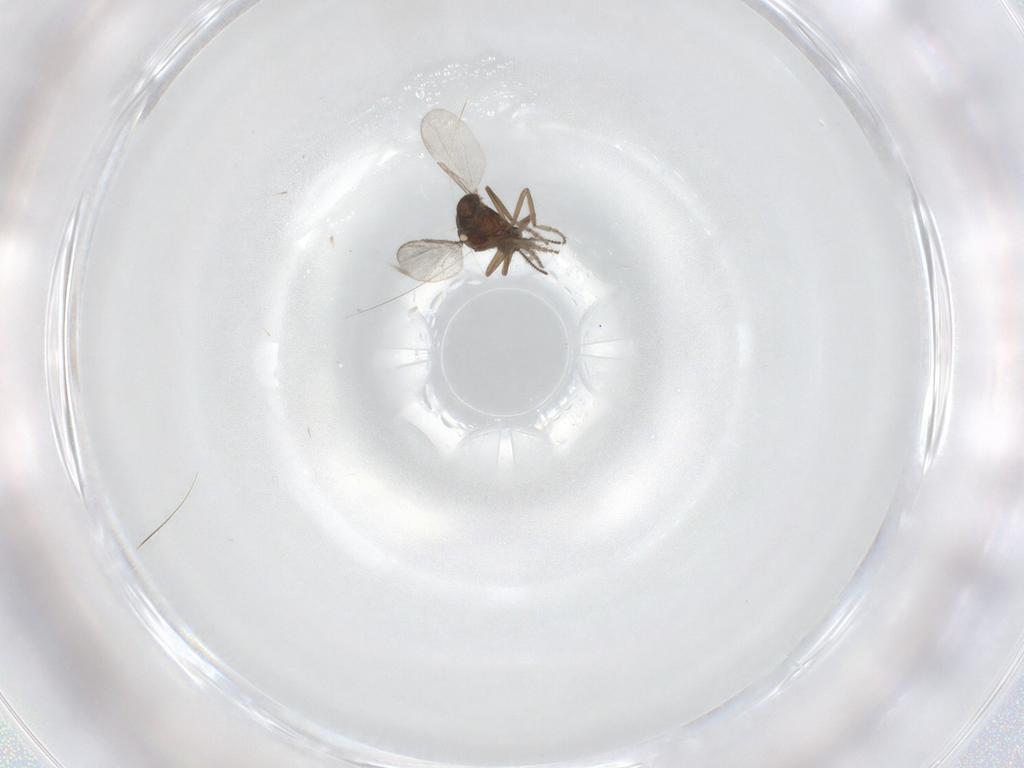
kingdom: Animalia
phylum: Arthropoda
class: Insecta
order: Diptera
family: Ceratopogonidae
